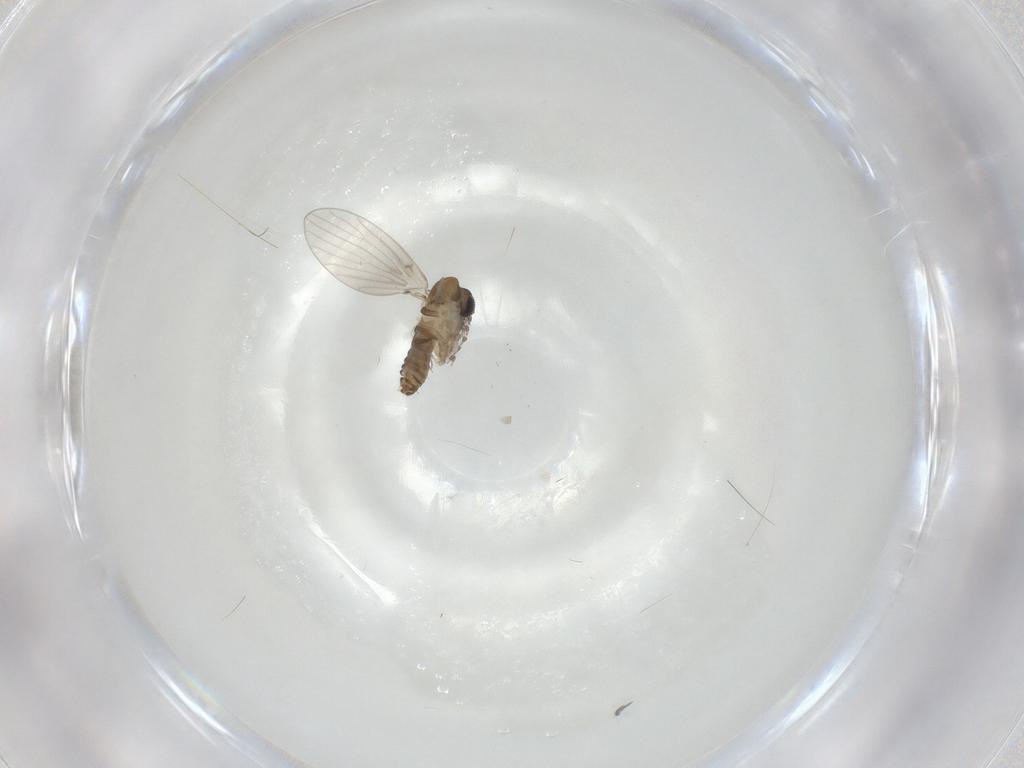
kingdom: Animalia
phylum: Arthropoda
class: Insecta
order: Diptera
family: Psychodidae
